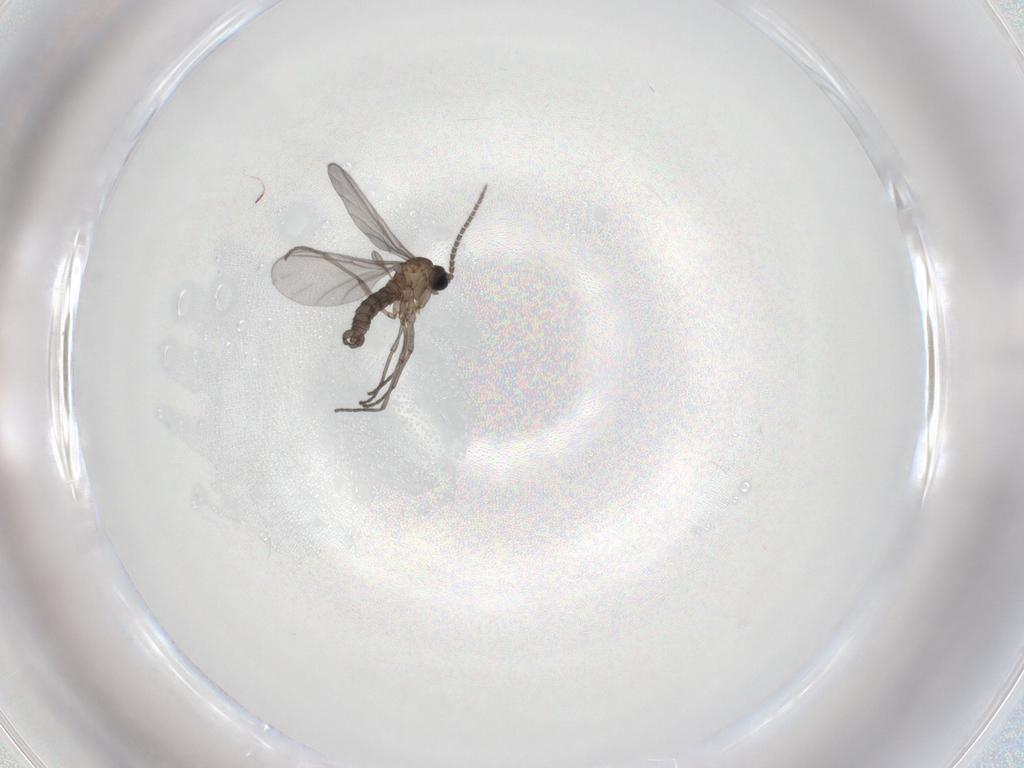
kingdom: Animalia
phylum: Arthropoda
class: Insecta
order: Diptera
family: Sciaridae
